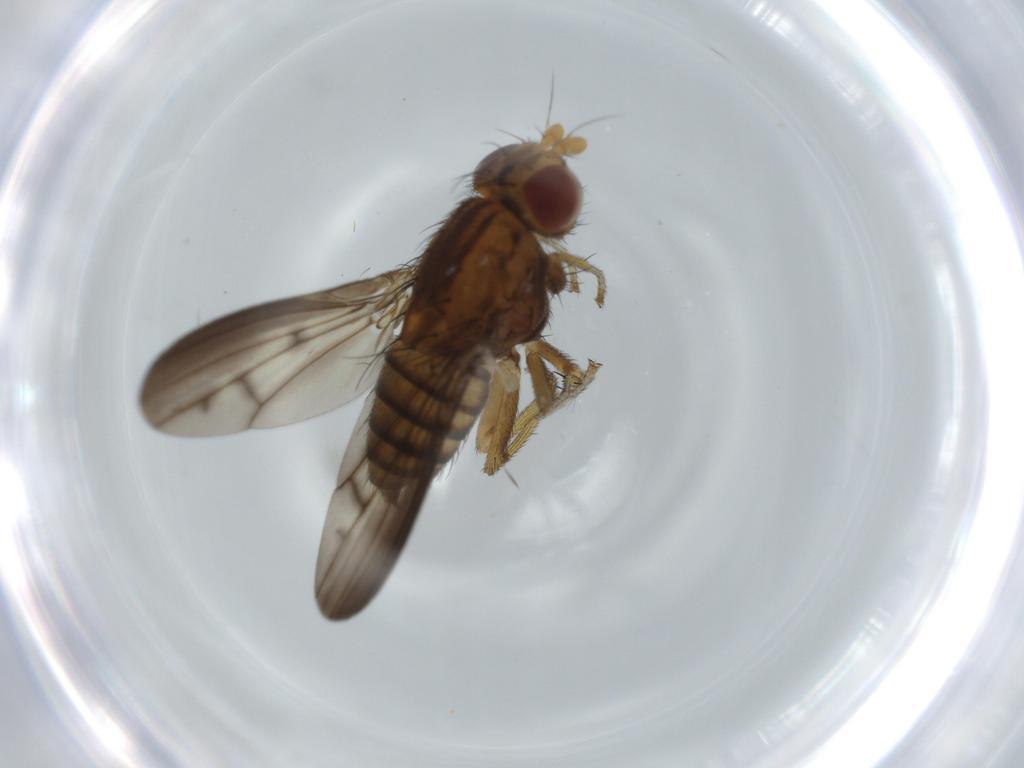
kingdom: Animalia
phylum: Arthropoda
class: Insecta
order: Diptera
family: Lauxaniidae
